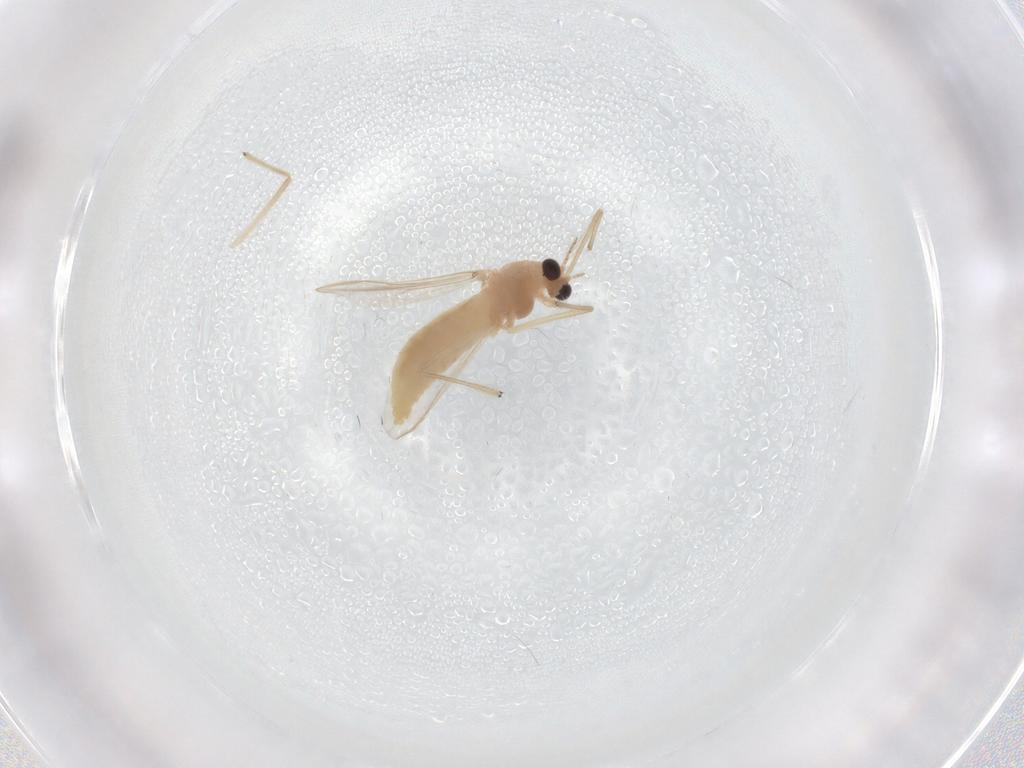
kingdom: Animalia
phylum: Arthropoda
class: Insecta
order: Diptera
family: Chironomidae
